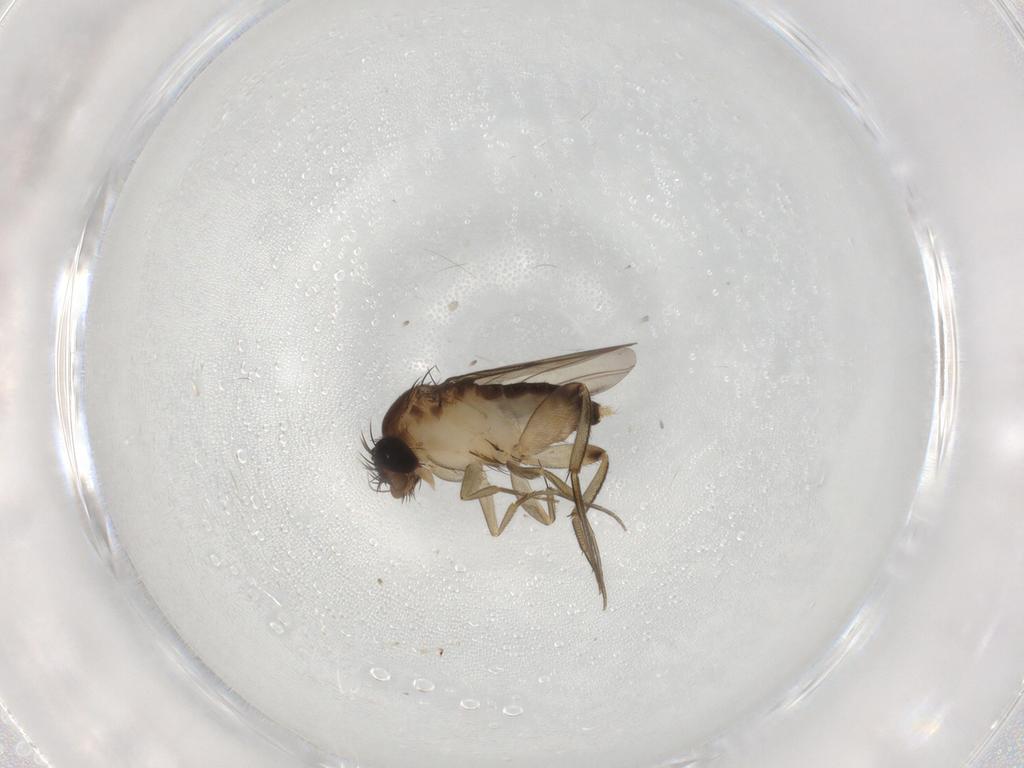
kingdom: Animalia
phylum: Arthropoda
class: Insecta
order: Diptera
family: Phoridae
